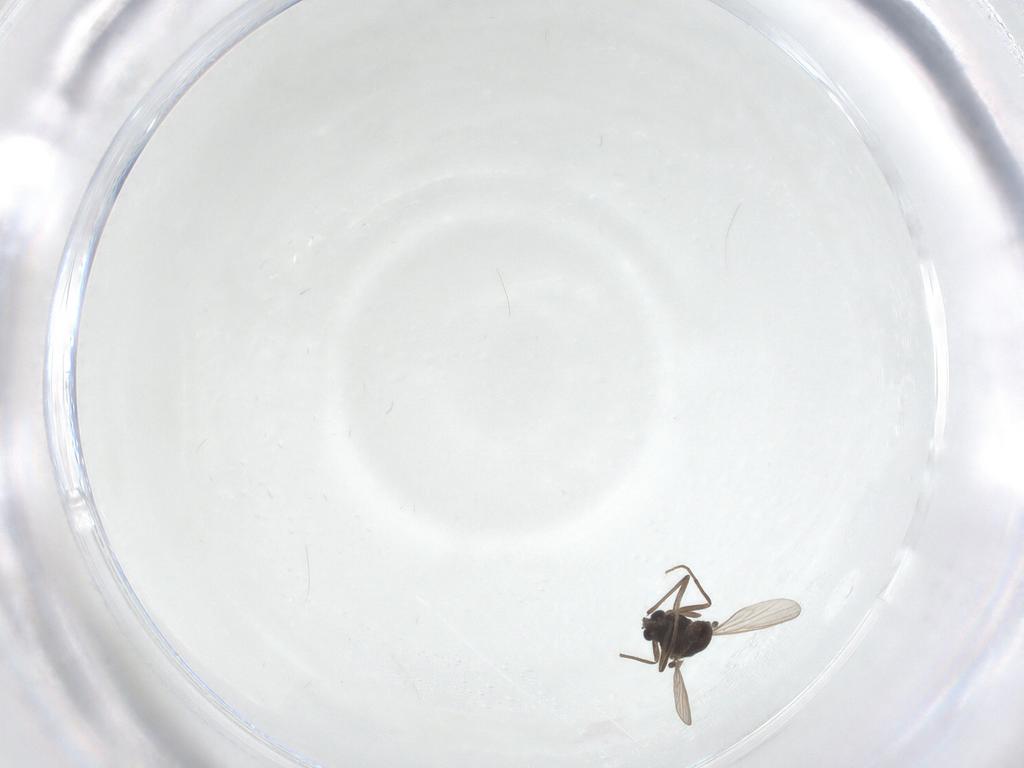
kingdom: Animalia
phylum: Arthropoda
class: Insecta
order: Diptera
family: Chironomidae
